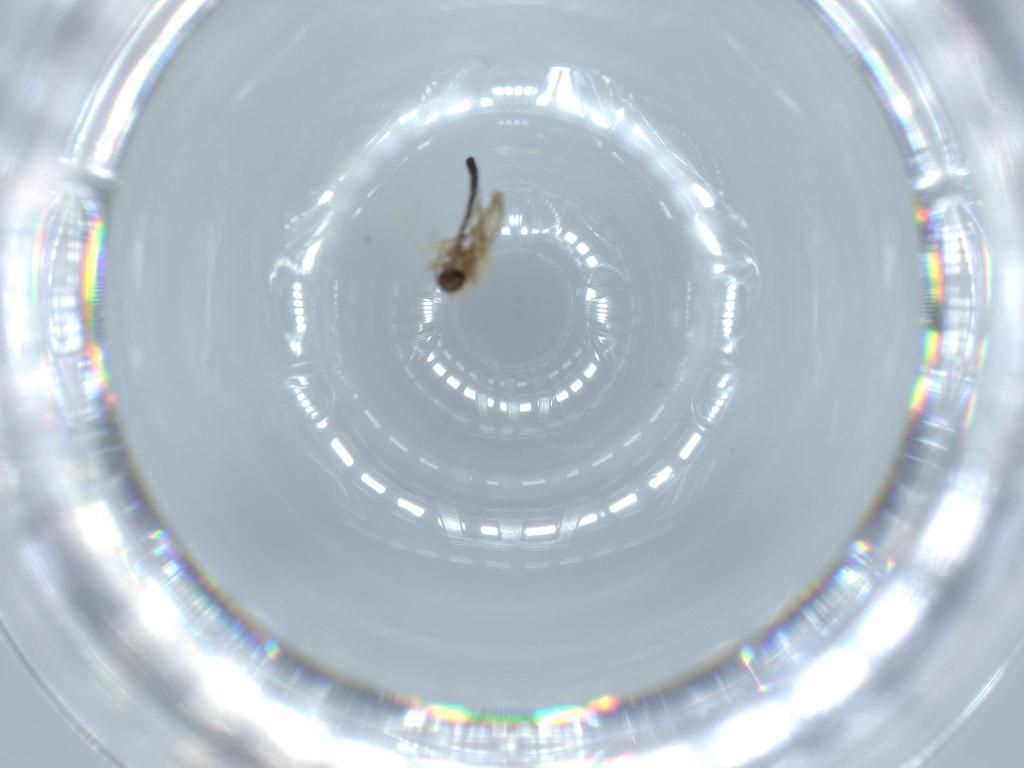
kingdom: Animalia
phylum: Arthropoda
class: Insecta
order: Diptera
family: Sciaridae
